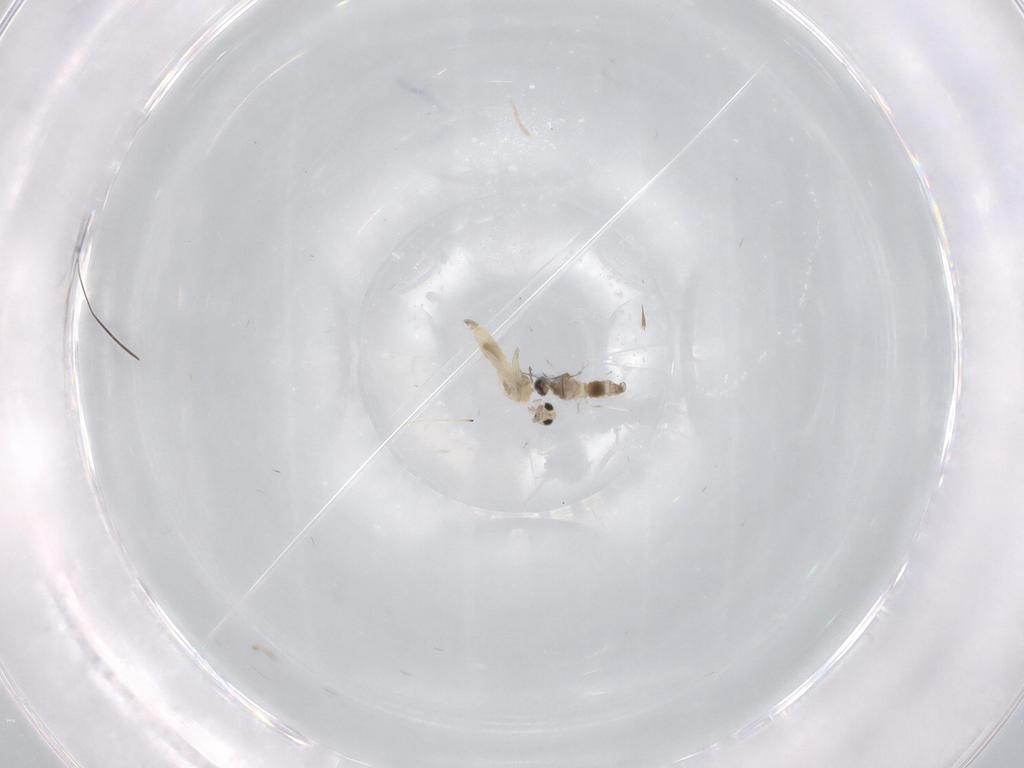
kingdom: Animalia
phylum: Arthropoda
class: Insecta
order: Diptera
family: Cecidomyiidae
